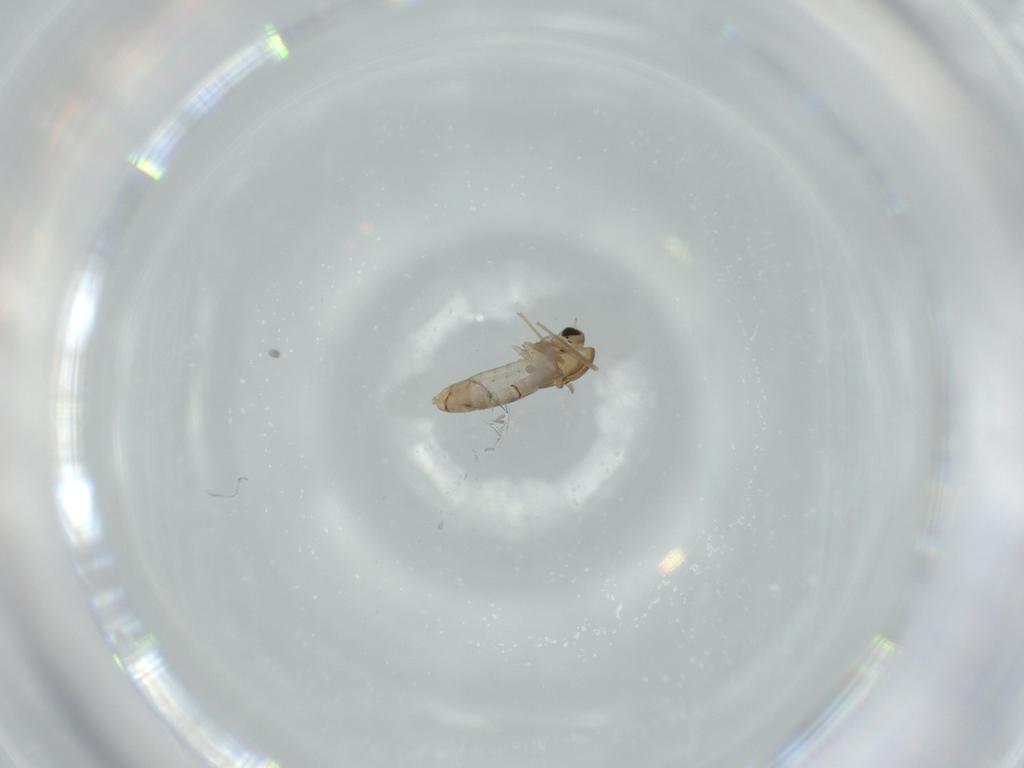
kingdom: Animalia
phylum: Arthropoda
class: Insecta
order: Diptera
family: Chironomidae
